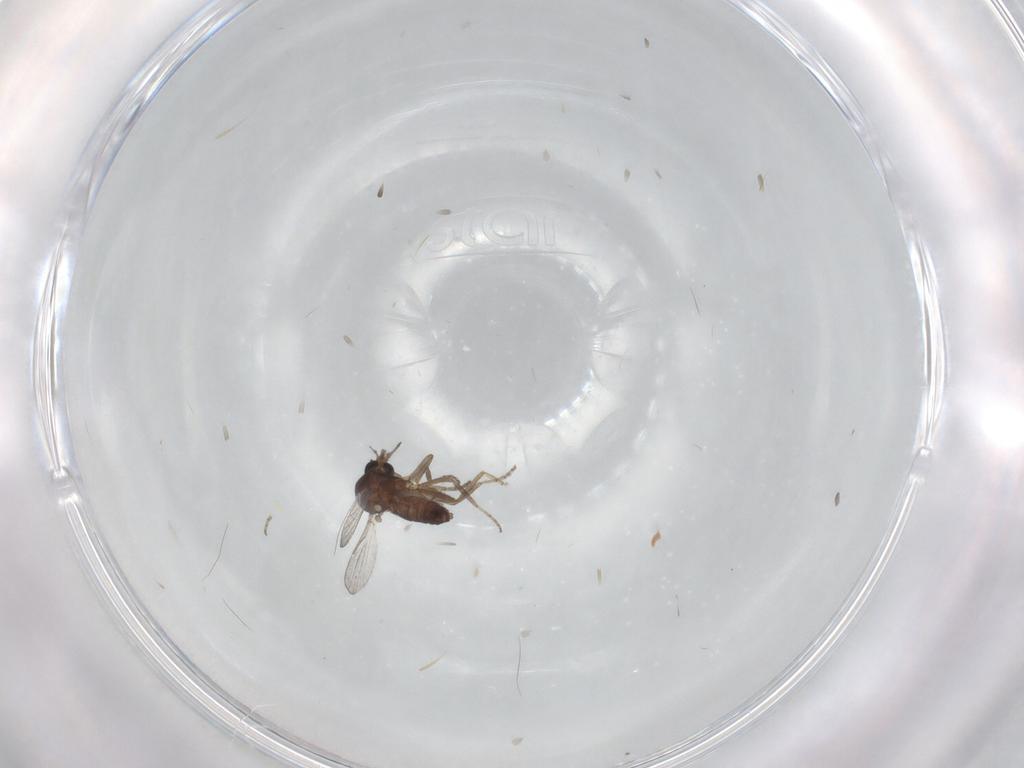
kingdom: Animalia
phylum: Arthropoda
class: Insecta
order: Diptera
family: Ceratopogonidae
